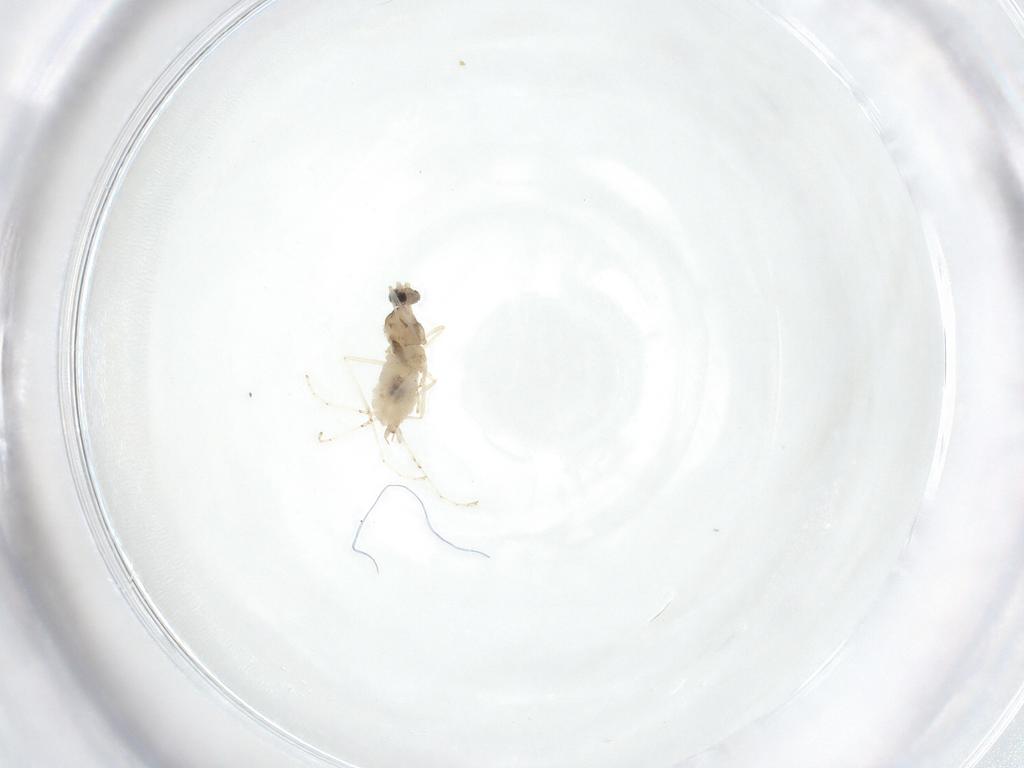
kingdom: Animalia
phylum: Arthropoda
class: Insecta
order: Diptera
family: Cecidomyiidae
